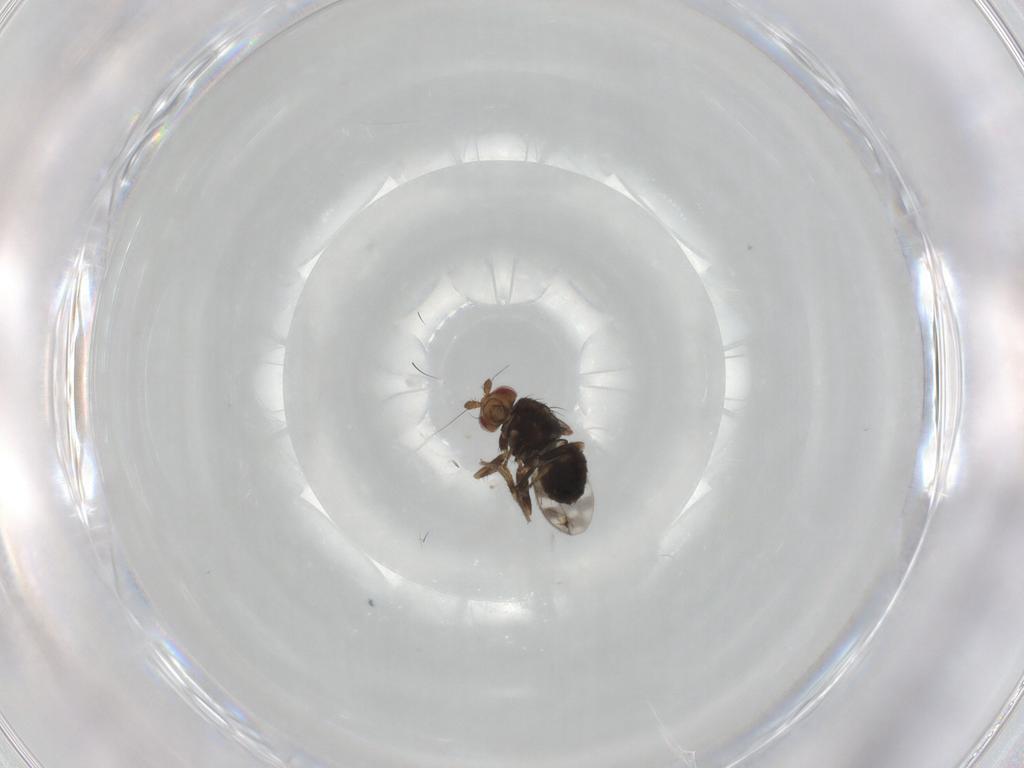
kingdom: Animalia
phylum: Arthropoda
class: Insecta
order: Diptera
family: Sphaeroceridae
